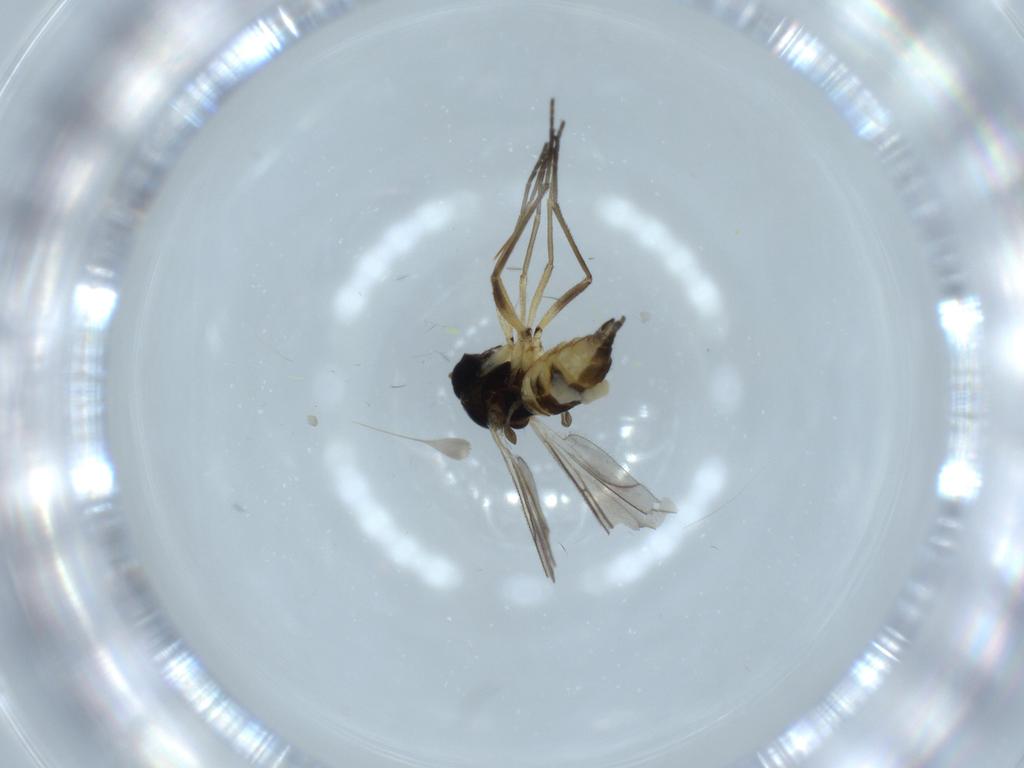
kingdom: Animalia
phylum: Arthropoda
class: Insecta
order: Diptera
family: Sciaridae
